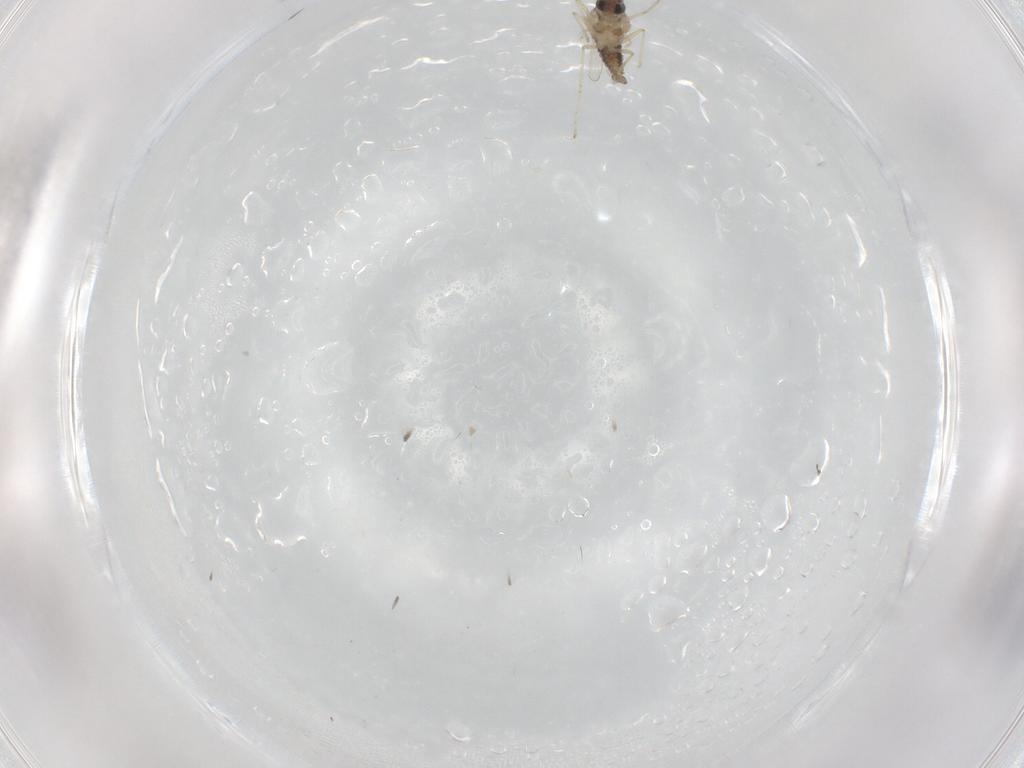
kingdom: Animalia
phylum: Arthropoda
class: Insecta
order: Diptera
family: Cecidomyiidae
